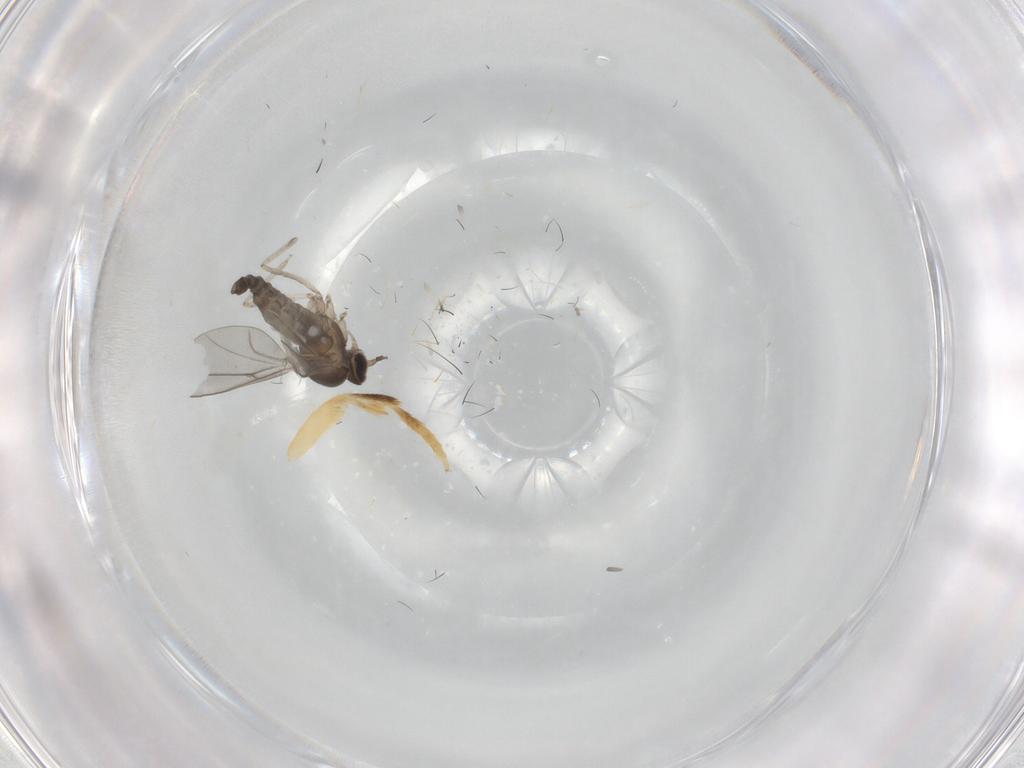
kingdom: Animalia
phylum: Arthropoda
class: Insecta
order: Diptera
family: Cecidomyiidae
